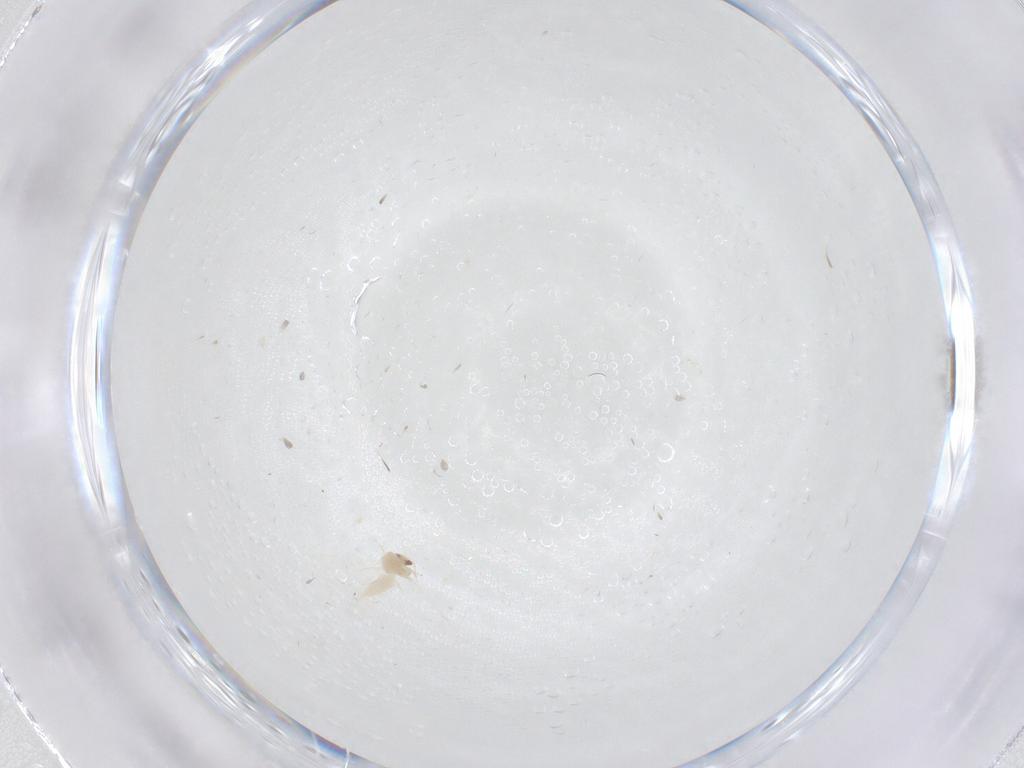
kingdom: Animalia
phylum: Arthropoda
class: Insecta
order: Hemiptera
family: Aleyrodidae
